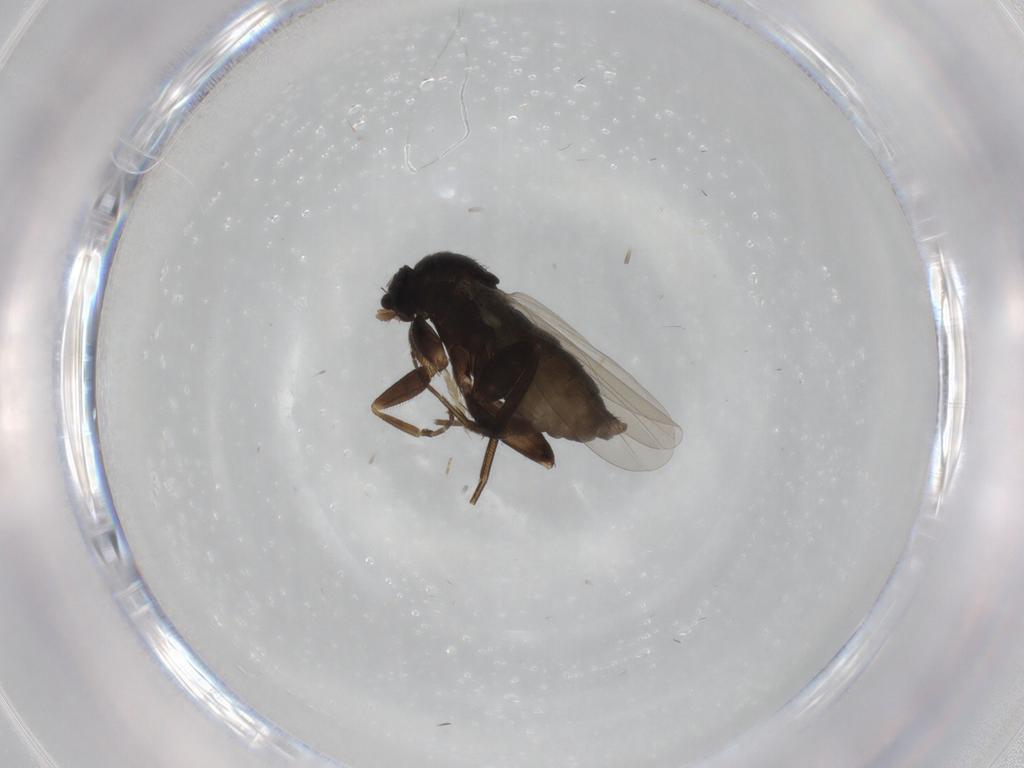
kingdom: Animalia
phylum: Arthropoda
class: Insecta
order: Diptera
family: Phoridae
